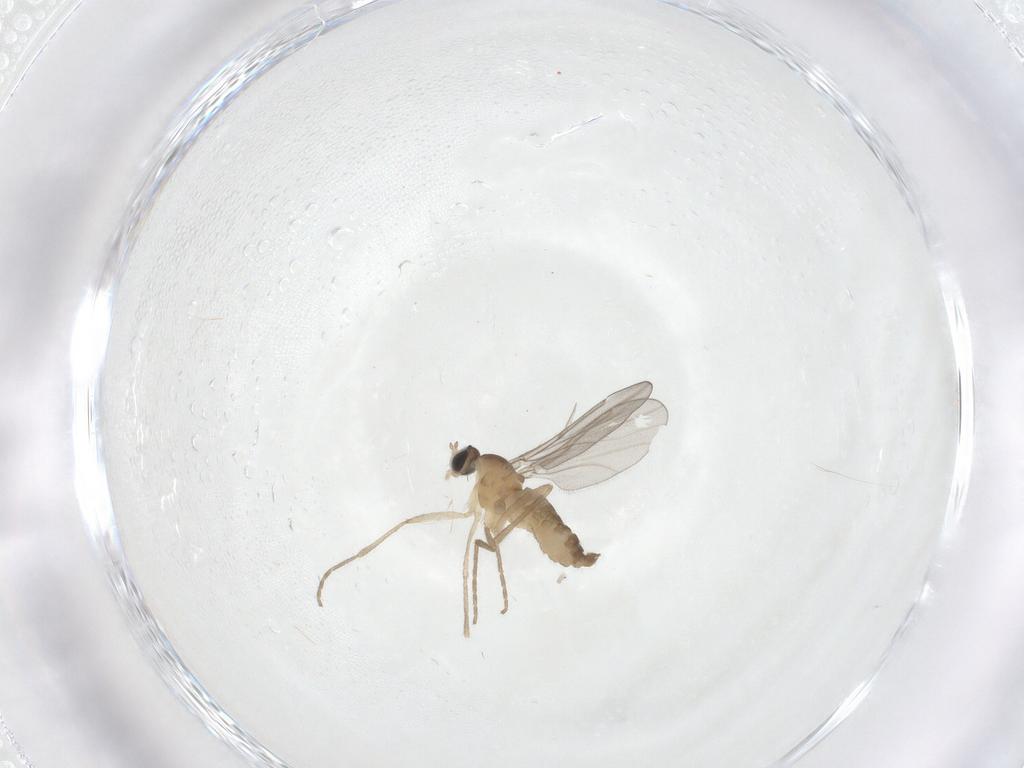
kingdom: Animalia
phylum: Arthropoda
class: Insecta
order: Diptera
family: Cecidomyiidae
